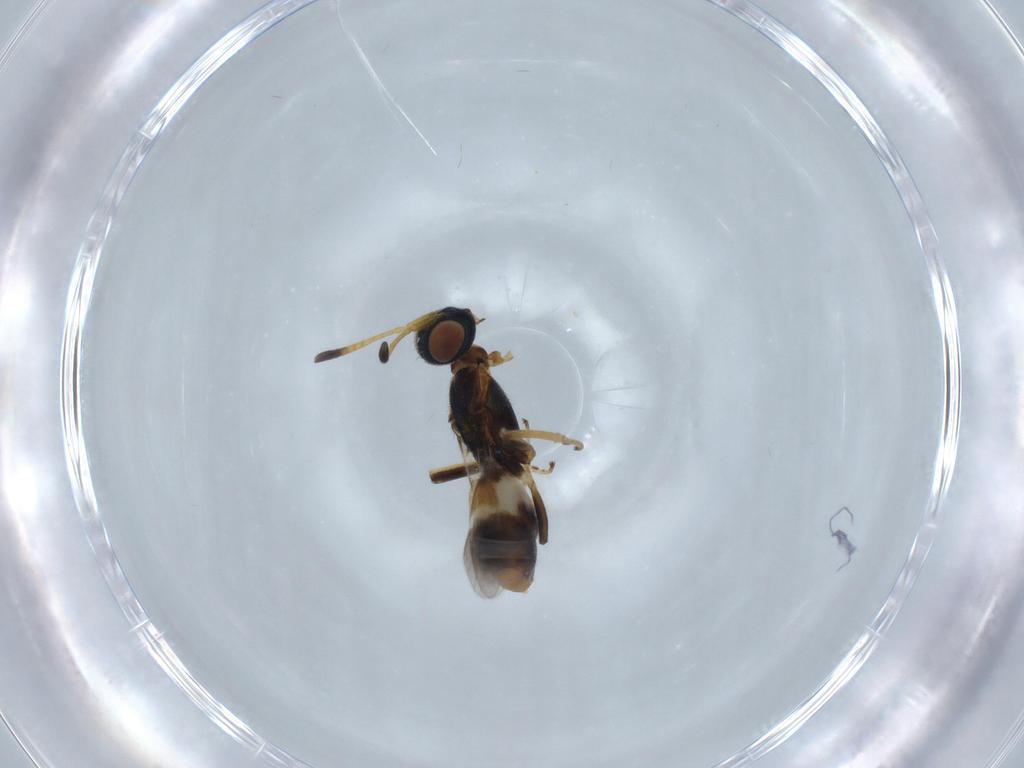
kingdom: Animalia
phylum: Arthropoda
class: Insecta
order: Hymenoptera
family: Eupelmidae
